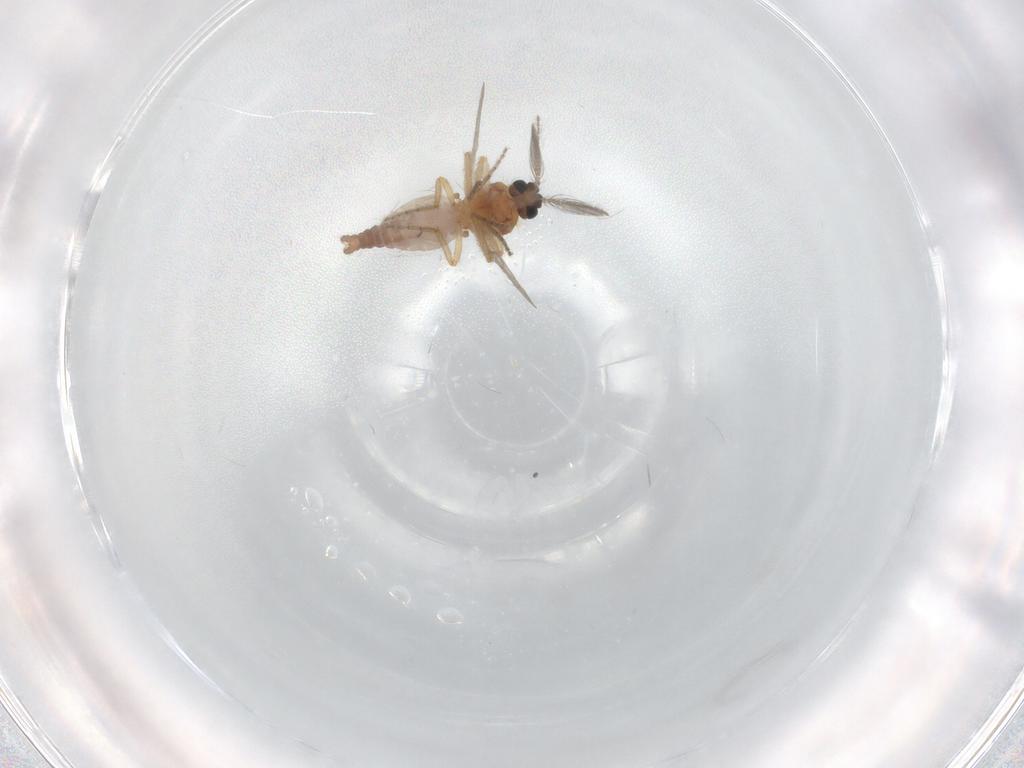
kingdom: Animalia
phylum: Arthropoda
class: Insecta
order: Diptera
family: Ceratopogonidae
